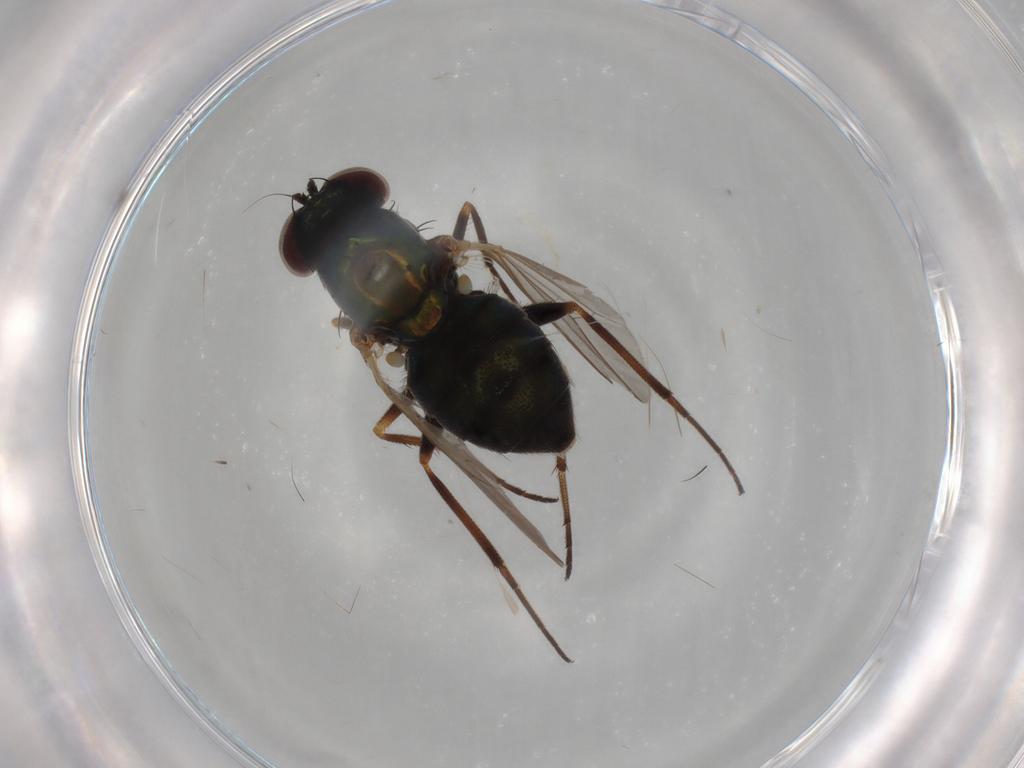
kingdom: Animalia
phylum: Arthropoda
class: Insecta
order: Diptera
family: Dolichopodidae
